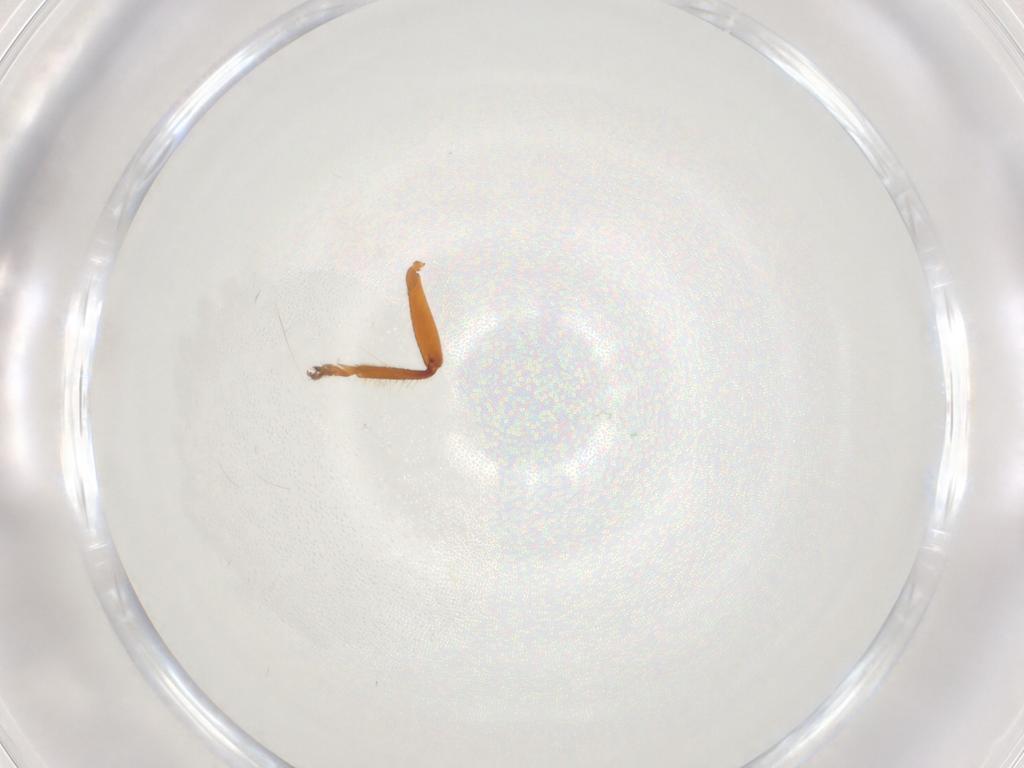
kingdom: Animalia
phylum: Arthropoda
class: Insecta
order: Diptera
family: Chironomidae
